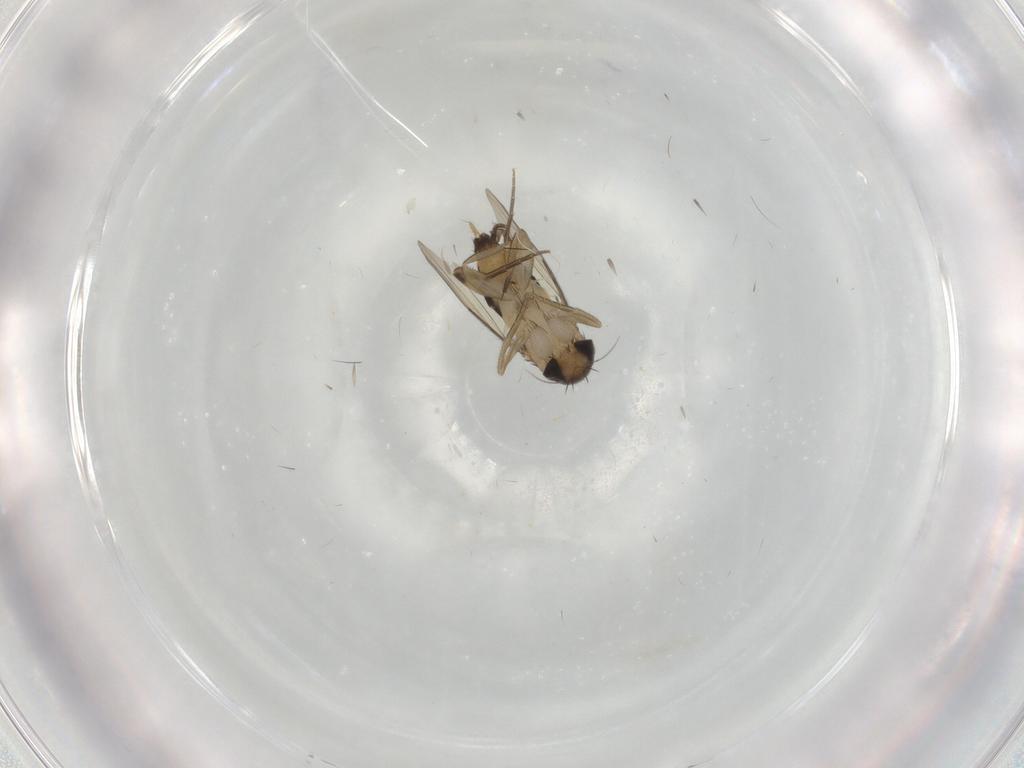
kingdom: Animalia
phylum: Arthropoda
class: Insecta
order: Diptera
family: Phoridae
